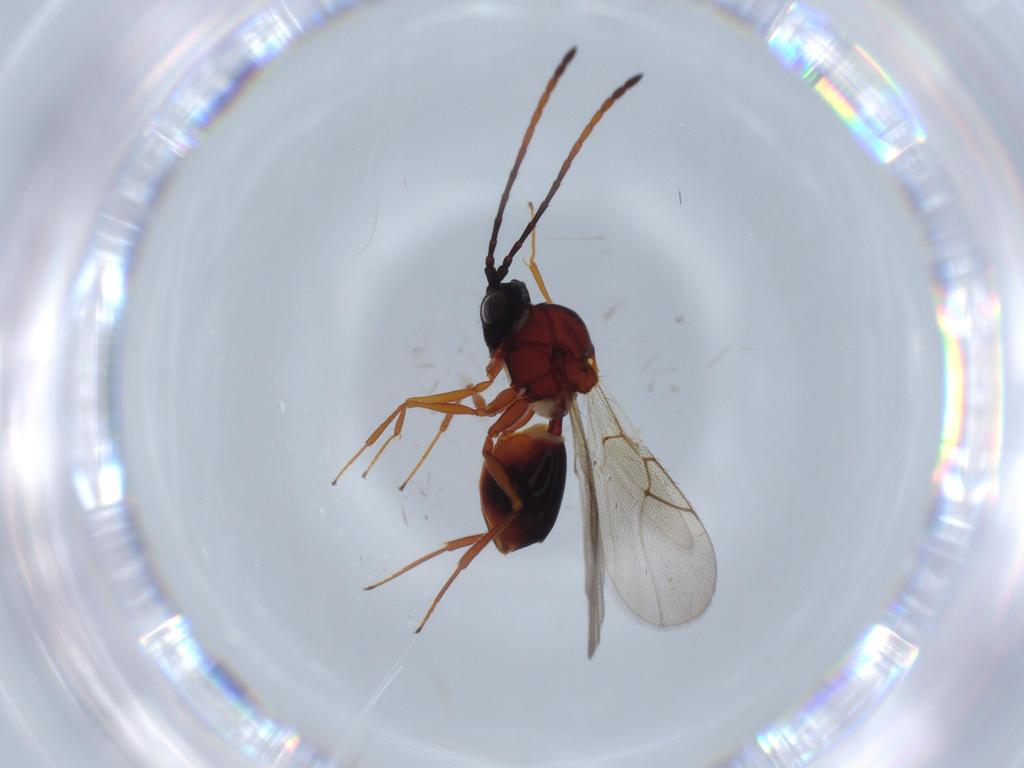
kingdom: Animalia
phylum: Arthropoda
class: Insecta
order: Hymenoptera
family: Figitidae
